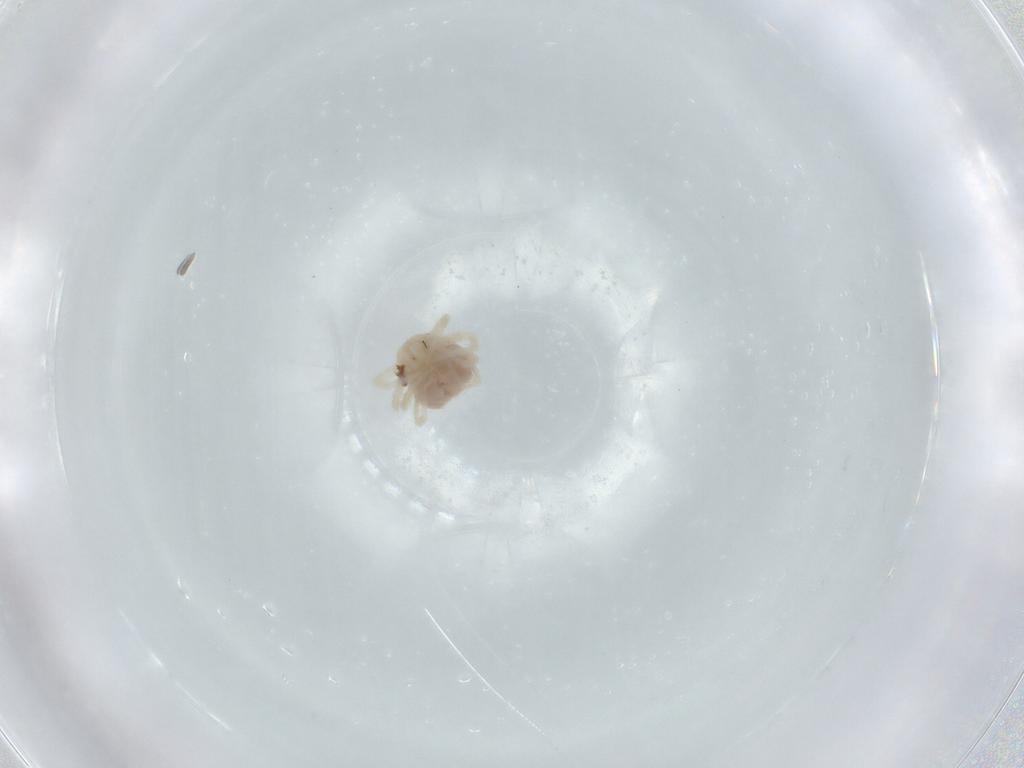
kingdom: Animalia
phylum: Arthropoda
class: Arachnida
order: Trombidiformes
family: Anystidae
